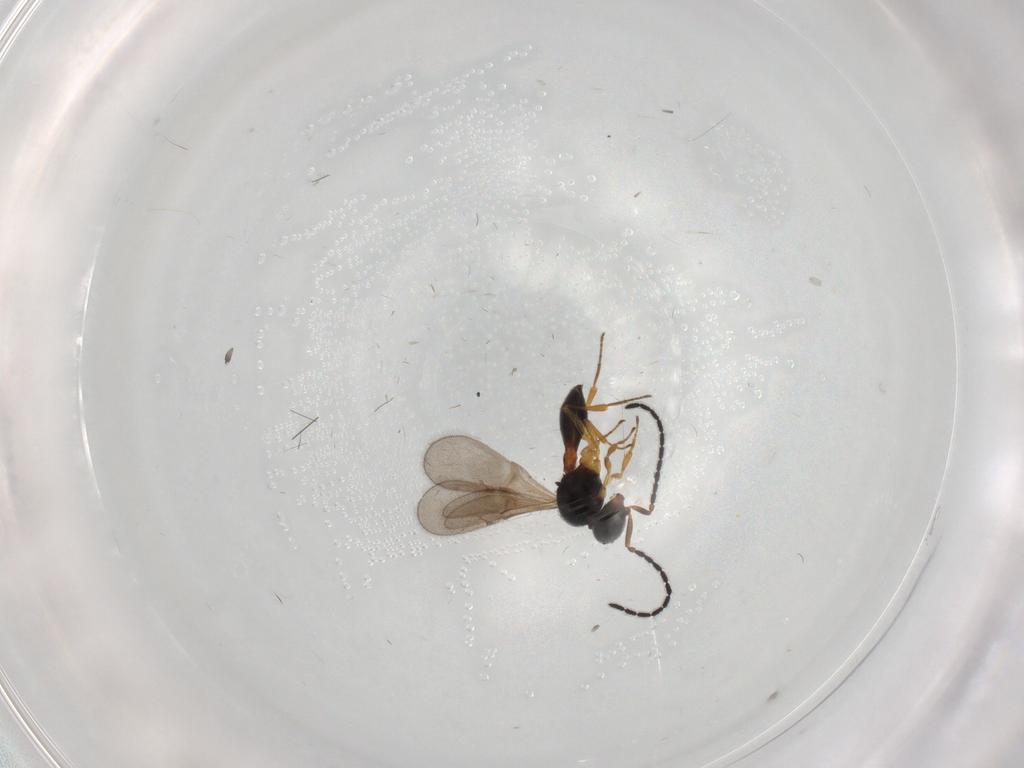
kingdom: Animalia
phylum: Arthropoda
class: Insecta
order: Hymenoptera
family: Scelionidae
